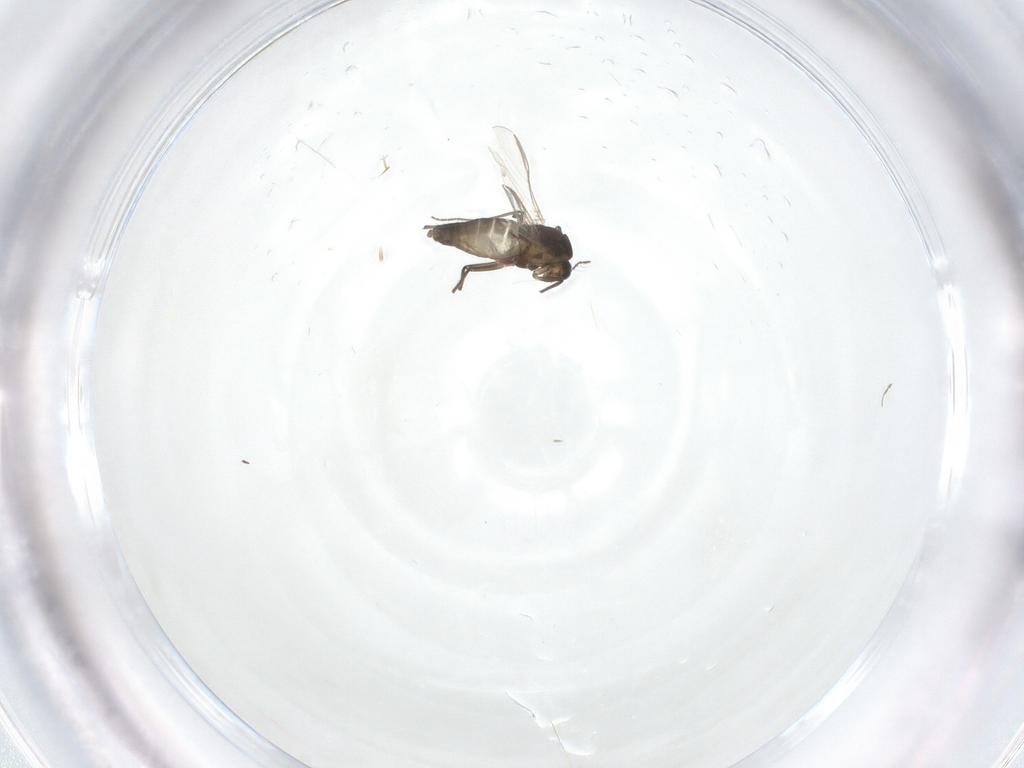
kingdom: Animalia
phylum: Arthropoda
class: Insecta
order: Diptera
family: Chironomidae
